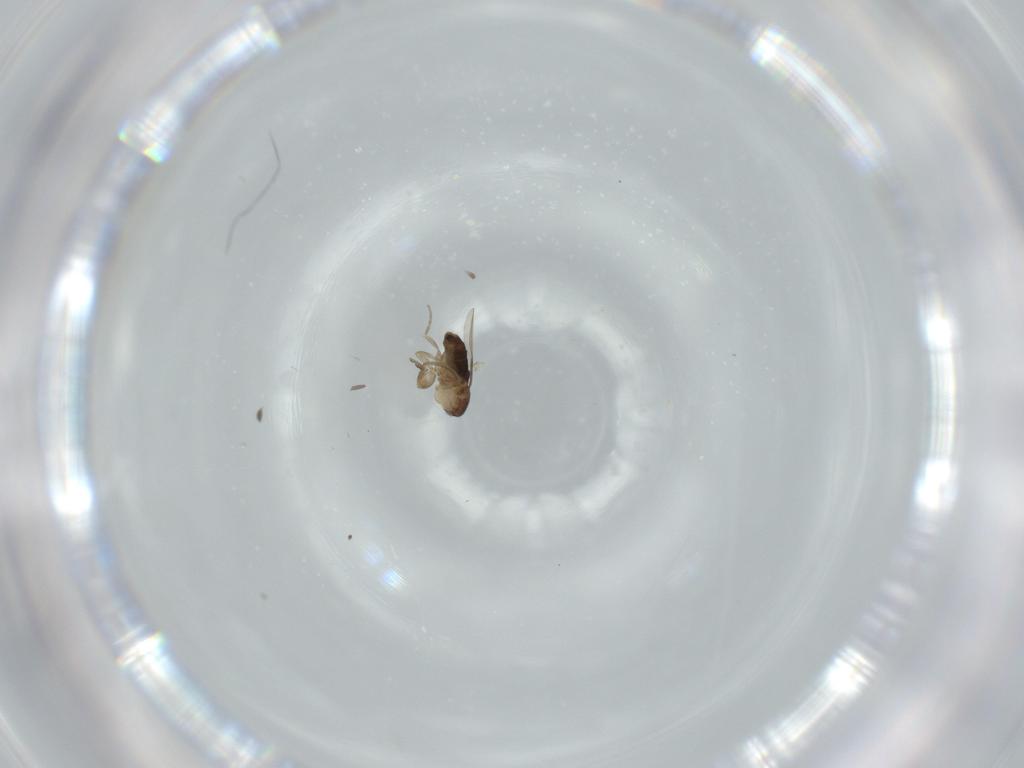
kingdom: Animalia
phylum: Arthropoda
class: Insecta
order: Diptera
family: Phoridae
